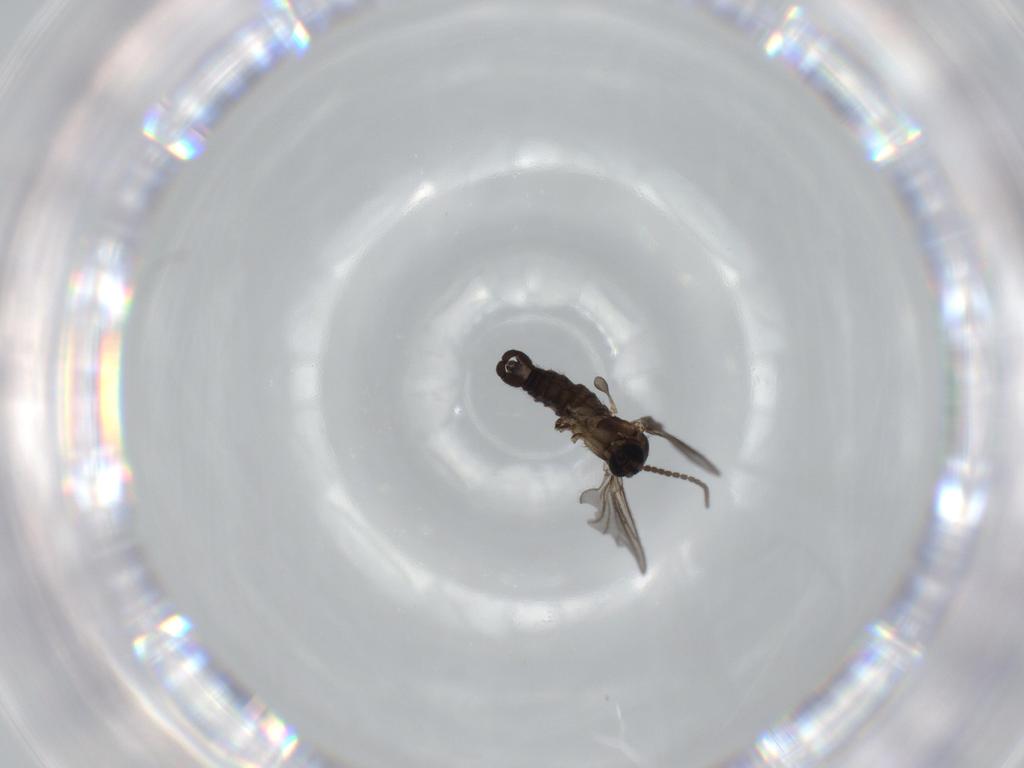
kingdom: Animalia
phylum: Arthropoda
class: Insecta
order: Diptera
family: Sciaridae
